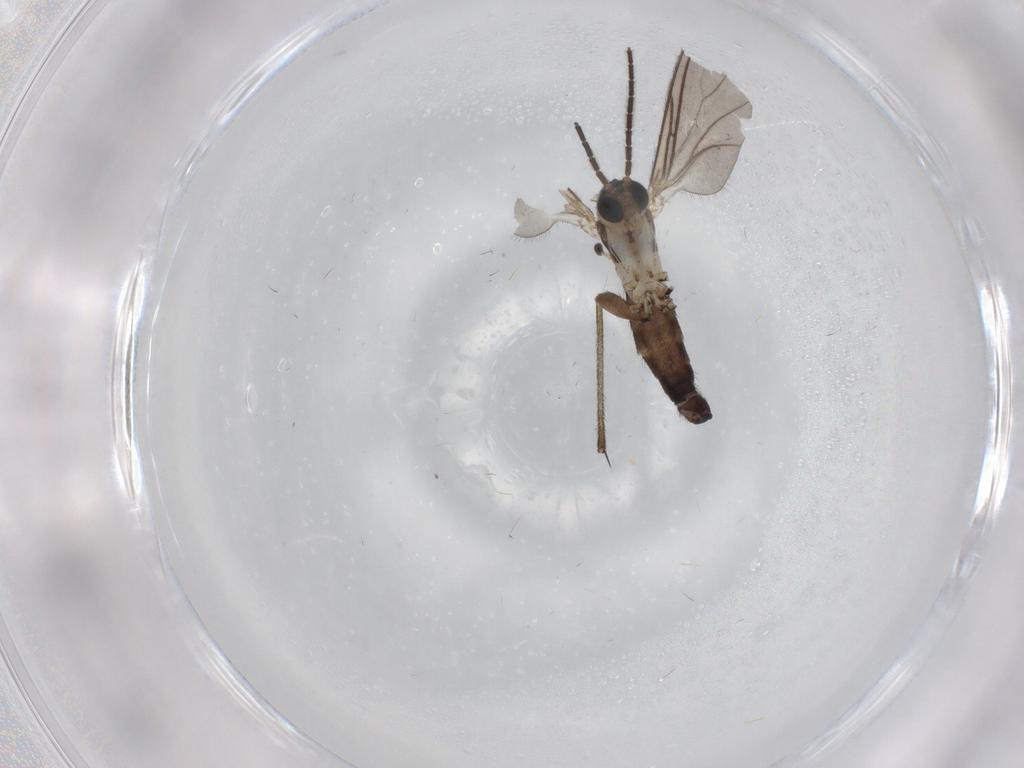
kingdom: Animalia
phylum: Arthropoda
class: Insecta
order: Diptera
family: Sciaridae
